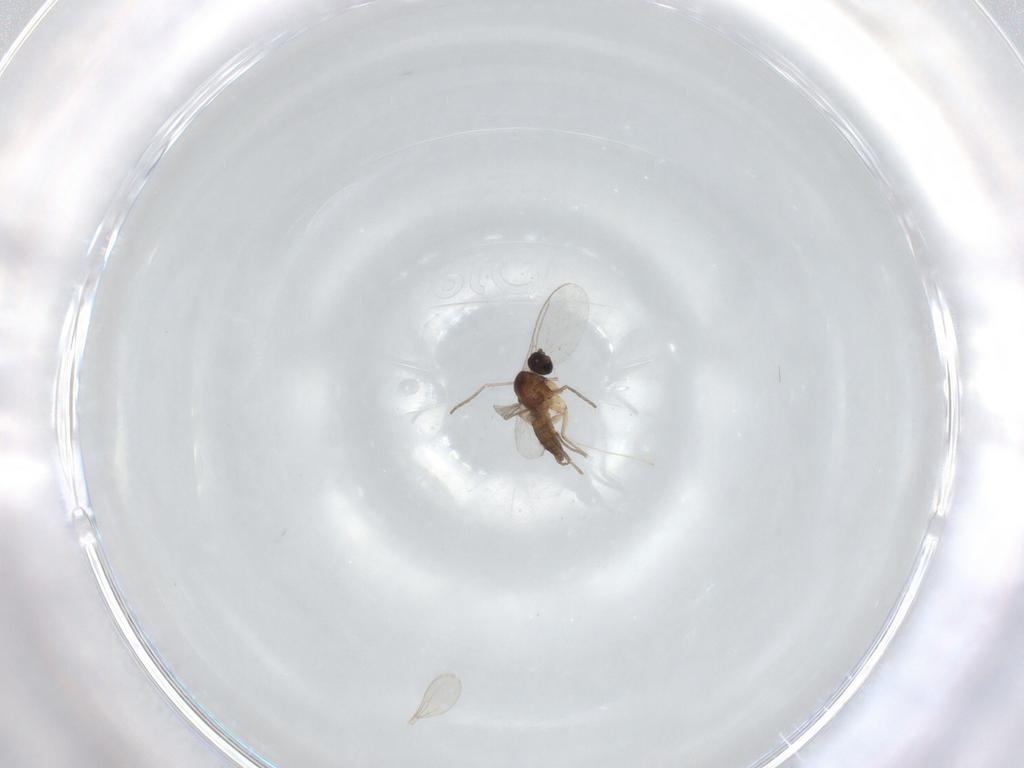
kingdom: Animalia
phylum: Arthropoda
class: Insecta
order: Diptera
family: Sciaridae
